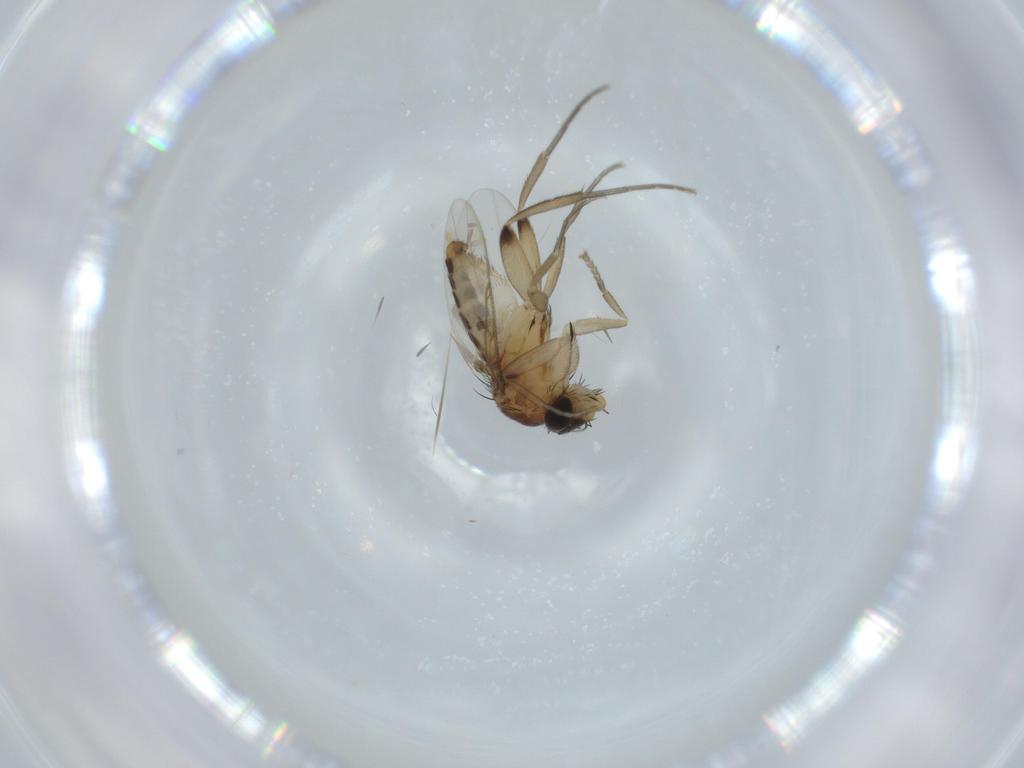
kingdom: Animalia
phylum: Arthropoda
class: Insecta
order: Diptera
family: Phoridae
